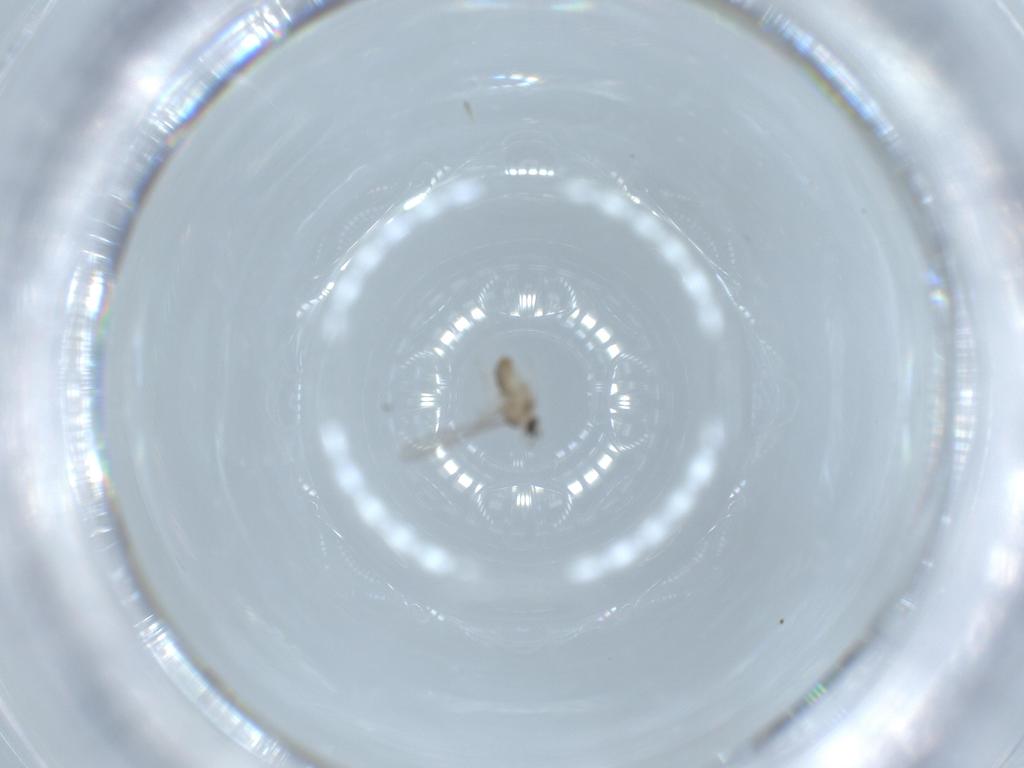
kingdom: Animalia
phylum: Arthropoda
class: Insecta
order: Diptera
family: Cecidomyiidae
